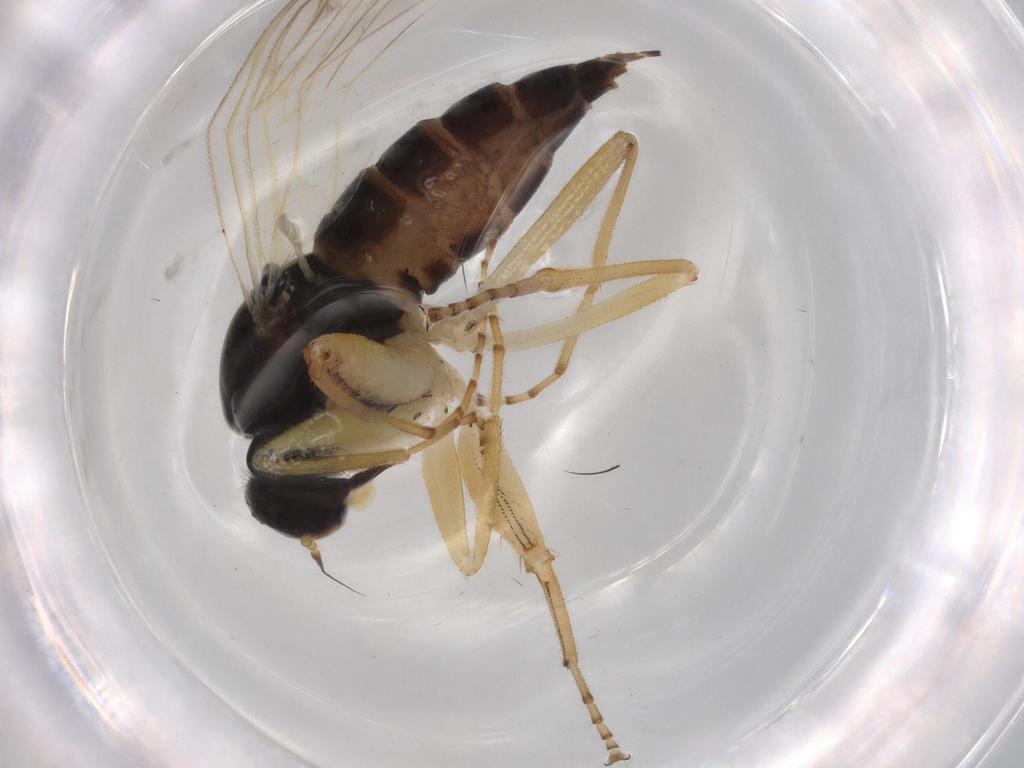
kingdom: Animalia
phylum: Arthropoda
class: Insecta
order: Diptera
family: Hybotidae
